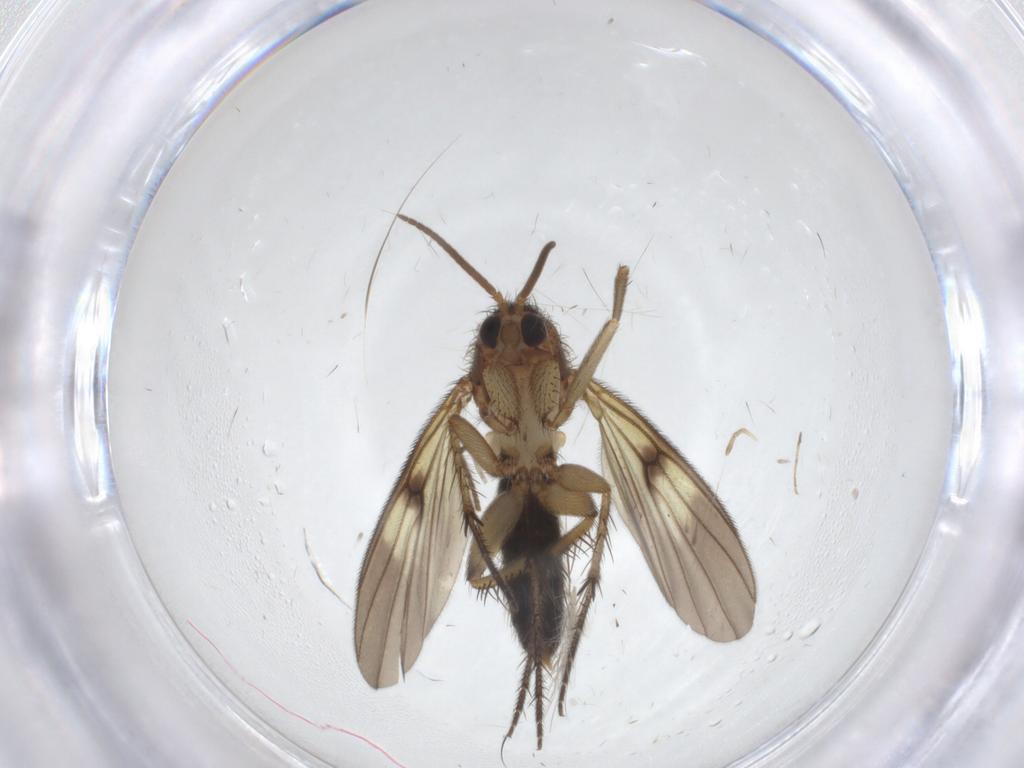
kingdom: Animalia
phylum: Arthropoda
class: Insecta
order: Diptera
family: Psychodidae
